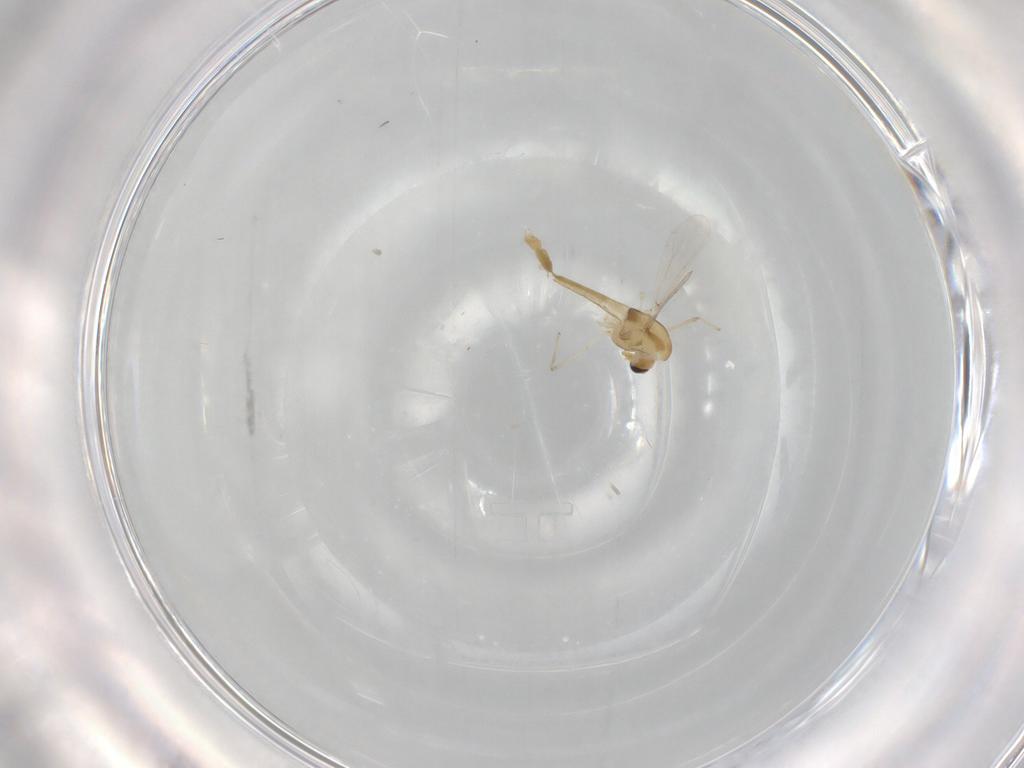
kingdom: Animalia
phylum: Arthropoda
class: Insecta
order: Diptera
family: Chironomidae
